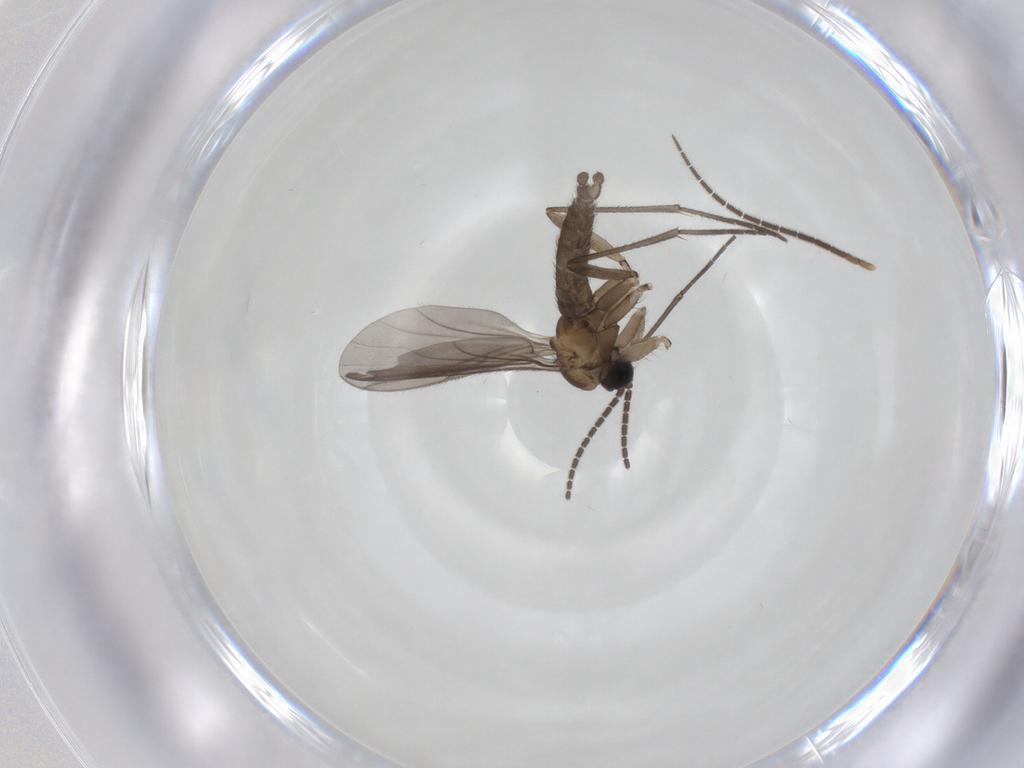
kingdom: Animalia
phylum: Arthropoda
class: Insecta
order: Diptera
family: Sciaridae
